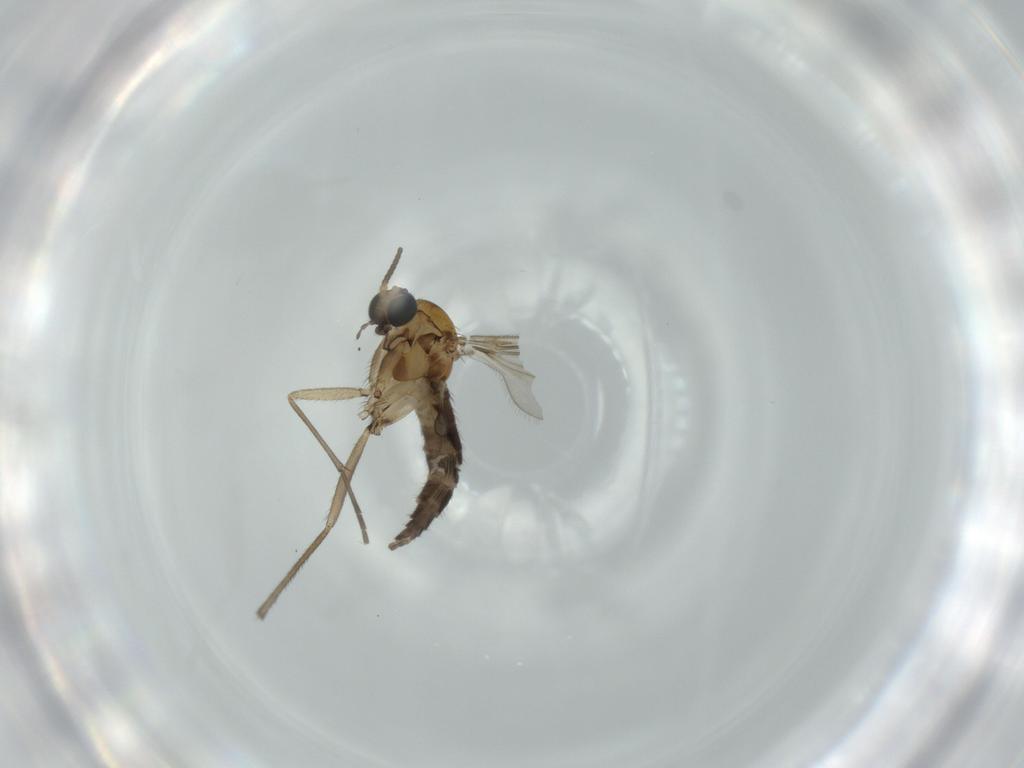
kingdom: Animalia
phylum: Arthropoda
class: Insecta
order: Diptera
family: Sciaridae
